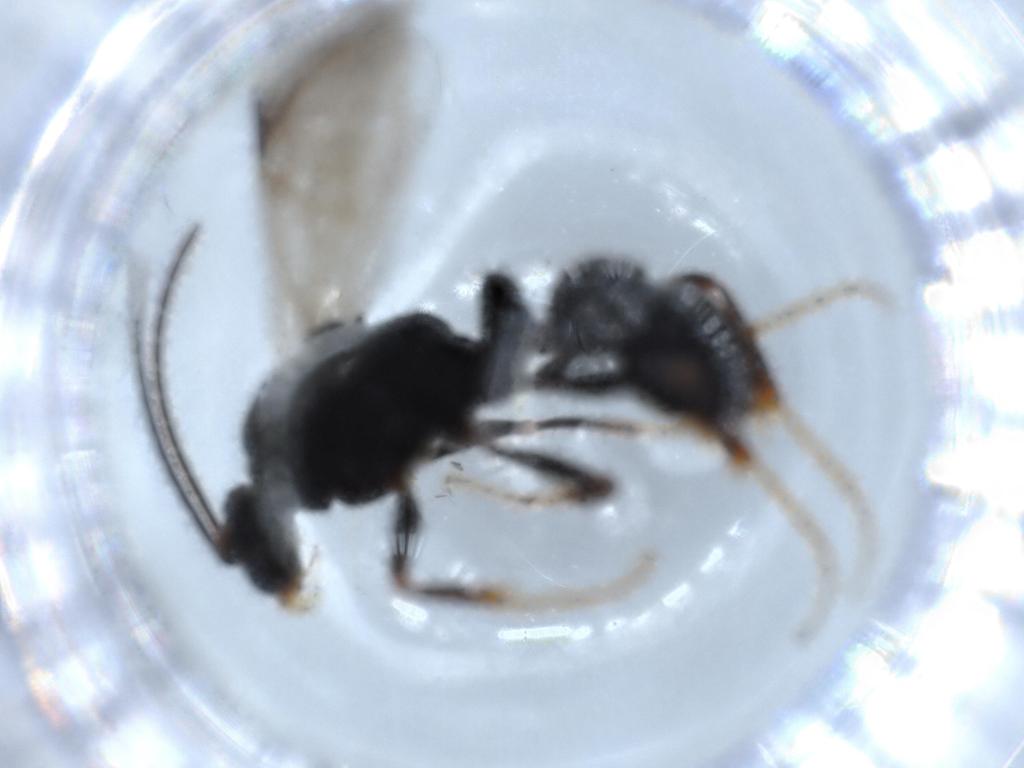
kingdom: Animalia
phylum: Arthropoda
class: Insecta
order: Hymenoptera
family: Formicidae
